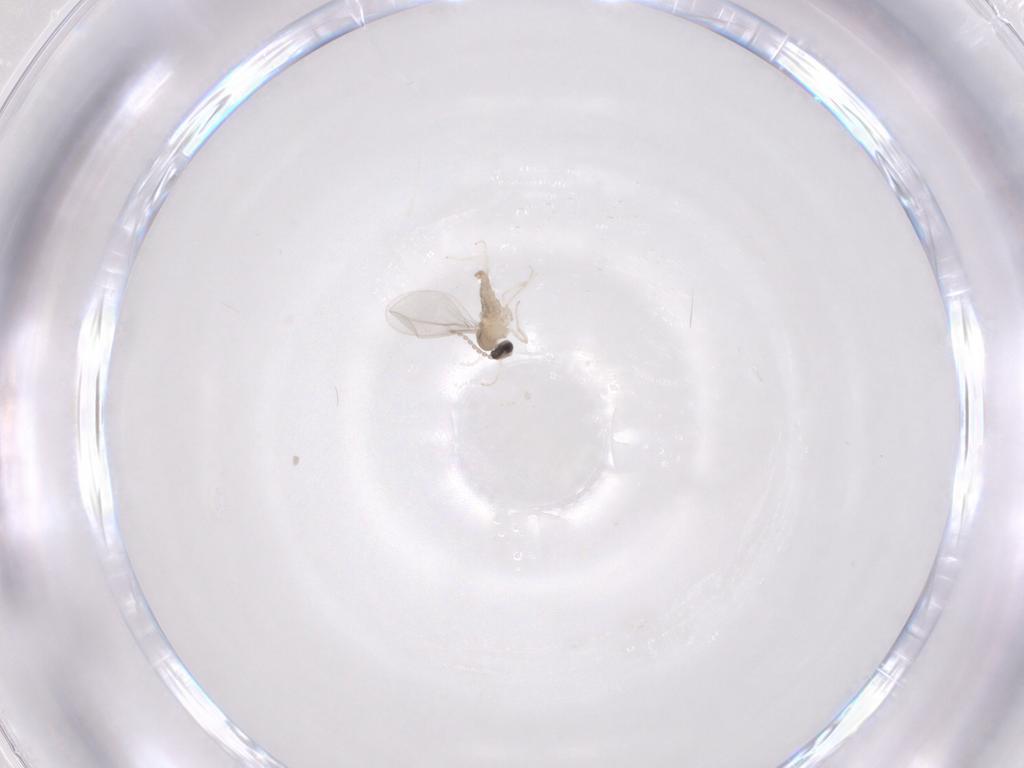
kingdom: Animalia
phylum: Arthropoda
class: Insecta
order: Diptera
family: Cecidomyiidae
